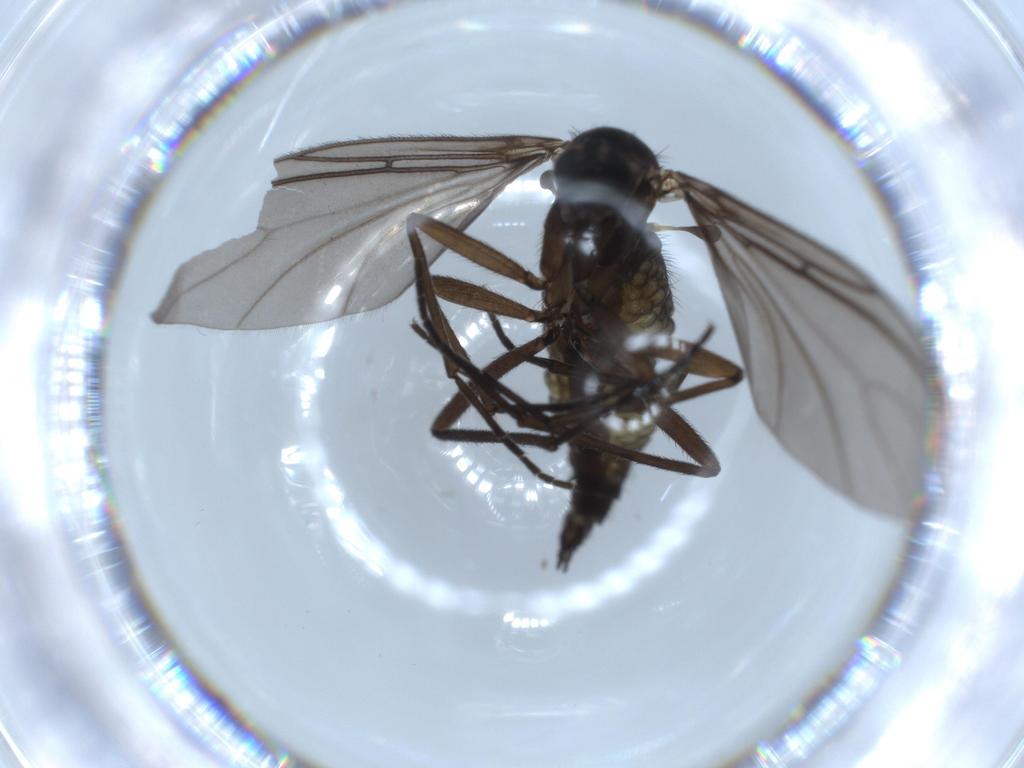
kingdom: Animalia
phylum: Arthropoda
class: Insecta
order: Diptera
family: Sciaridae
